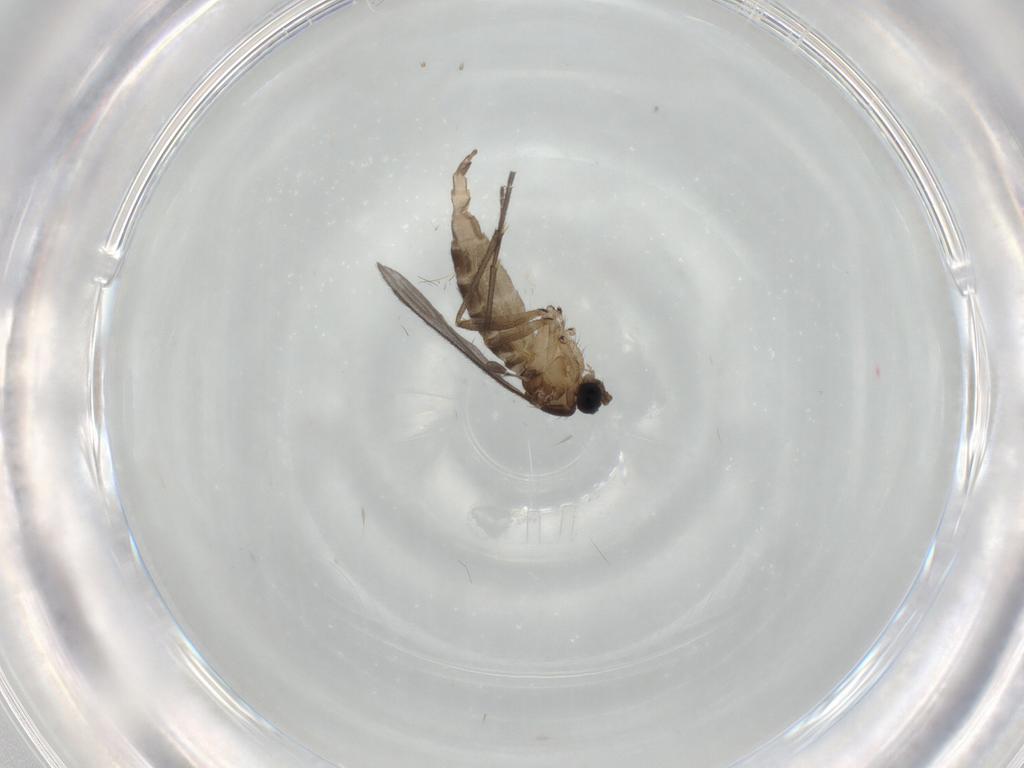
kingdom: Animalia
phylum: Arthropoda
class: Insecta
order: Diptera
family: Sciaridae
